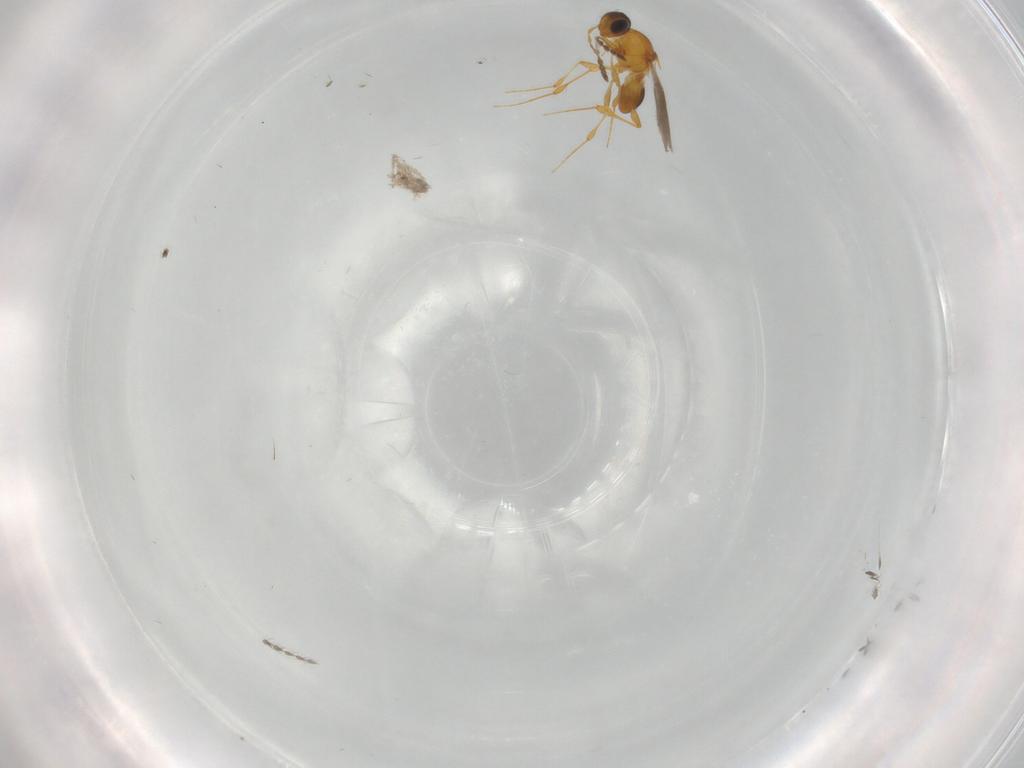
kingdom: Animalia
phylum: Arthropoda
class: Insecta
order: Hymenoptera
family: Platygastridae
